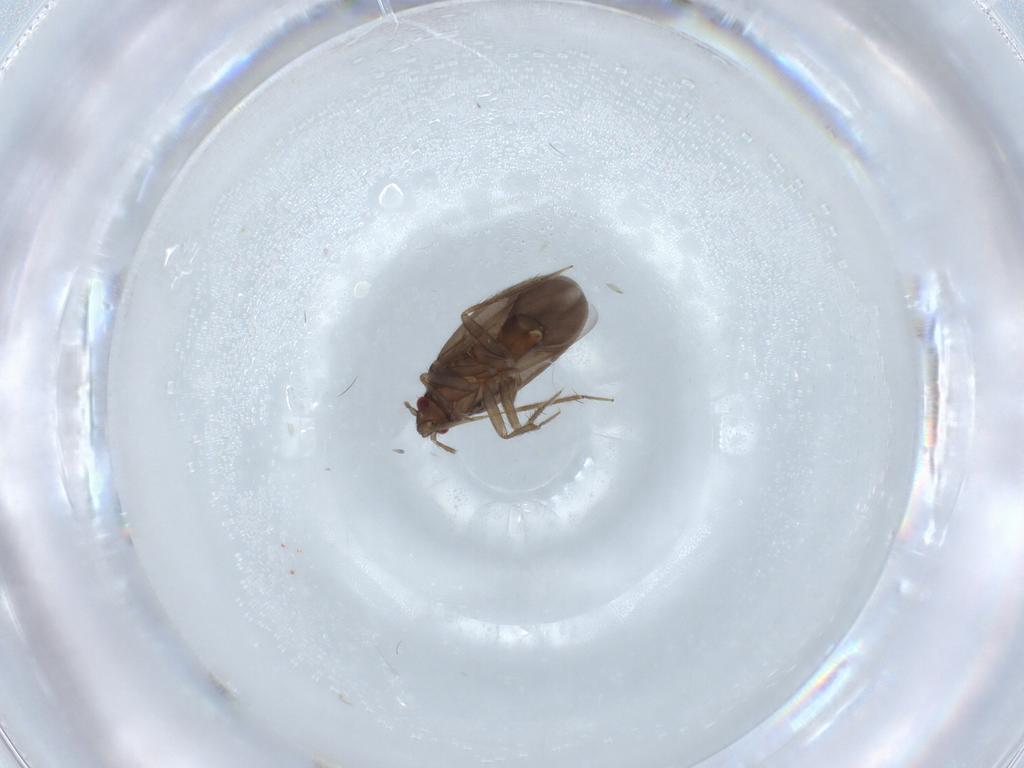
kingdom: Animalia
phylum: Arthropoda
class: Insecta
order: Hemiptera
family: Ceratocombidae
